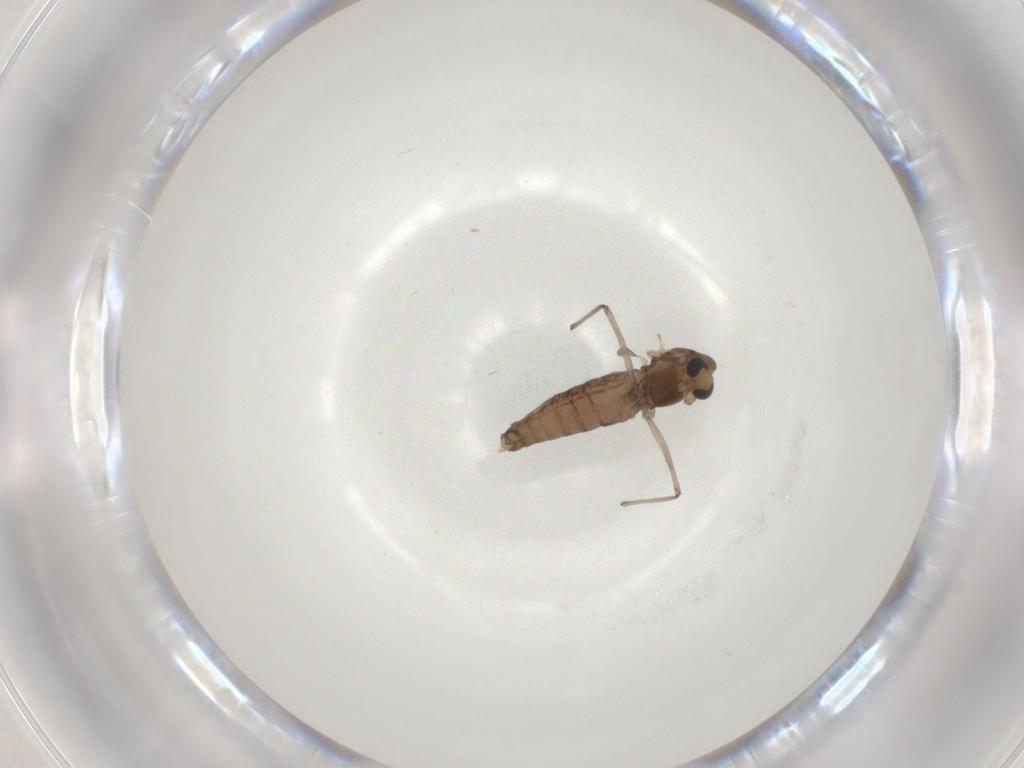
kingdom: Animalia
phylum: Arthropoda
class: Insecta
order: Diptera
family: Chironomidae
